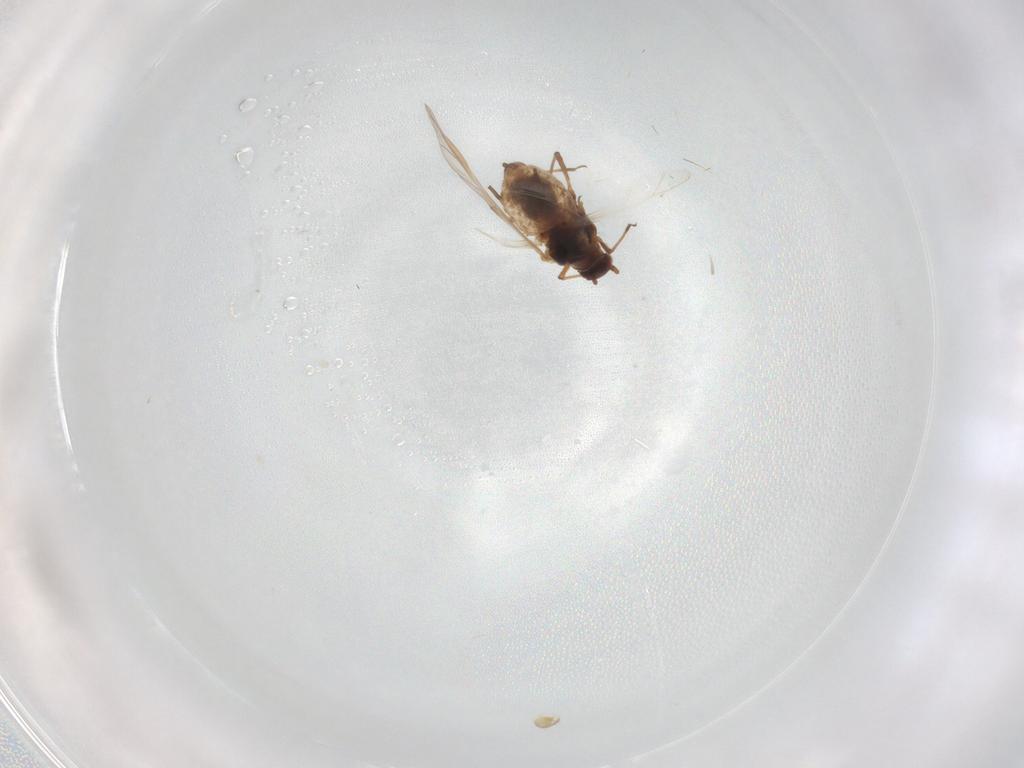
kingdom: Animalia
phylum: Arthropoda
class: Insecta
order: Hemiptera
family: Aphididae
